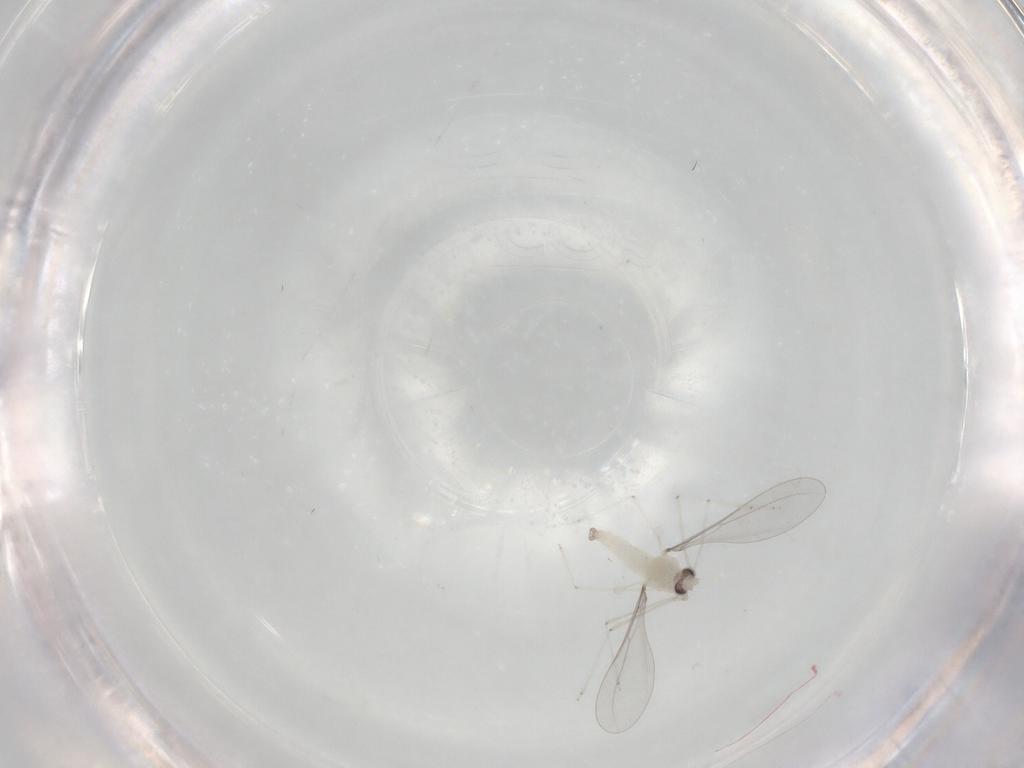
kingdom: Animalia
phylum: Arthropoda
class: Insecta
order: Diptera
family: Cecidomyiidae
